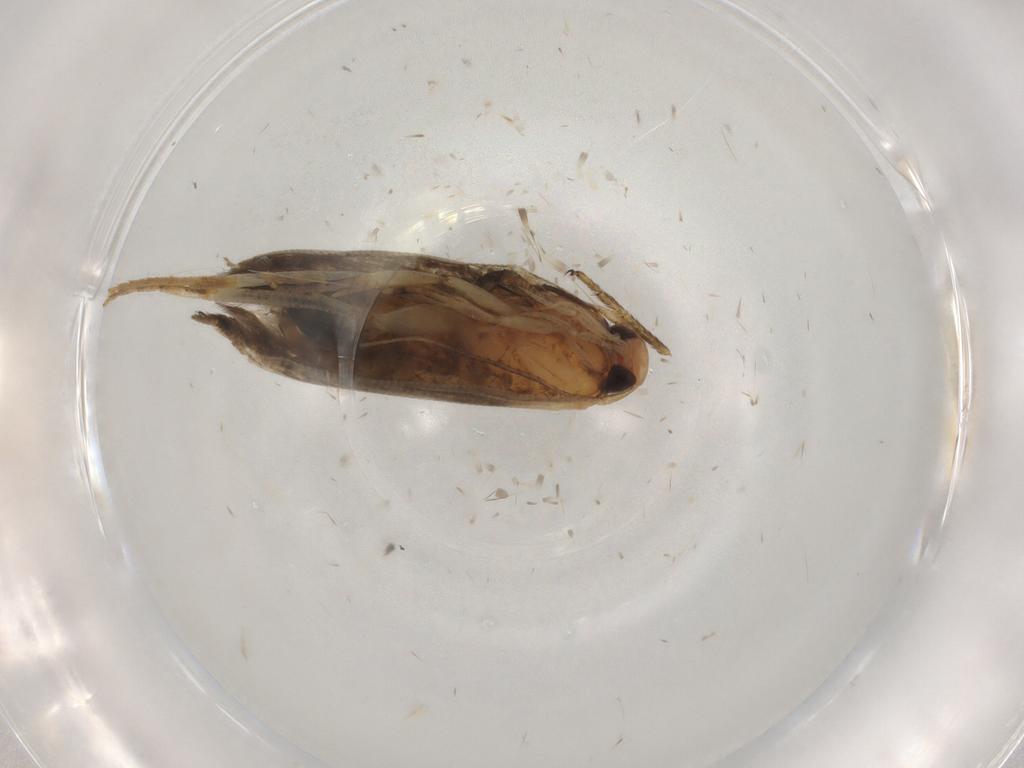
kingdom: Animalia
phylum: Arthropoda
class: Insecta
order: Lepidoptera
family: Cosmopterigidae
